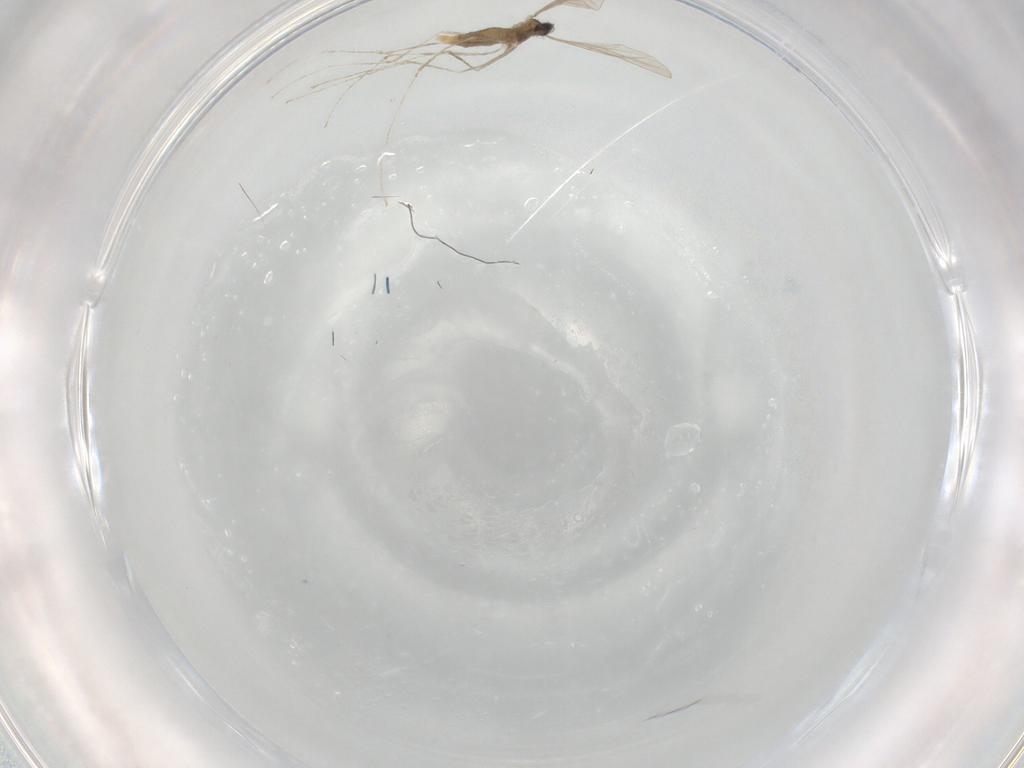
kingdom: Animalia
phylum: Arthropoda
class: Insecta
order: Diptera
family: Cecidomyiidae
